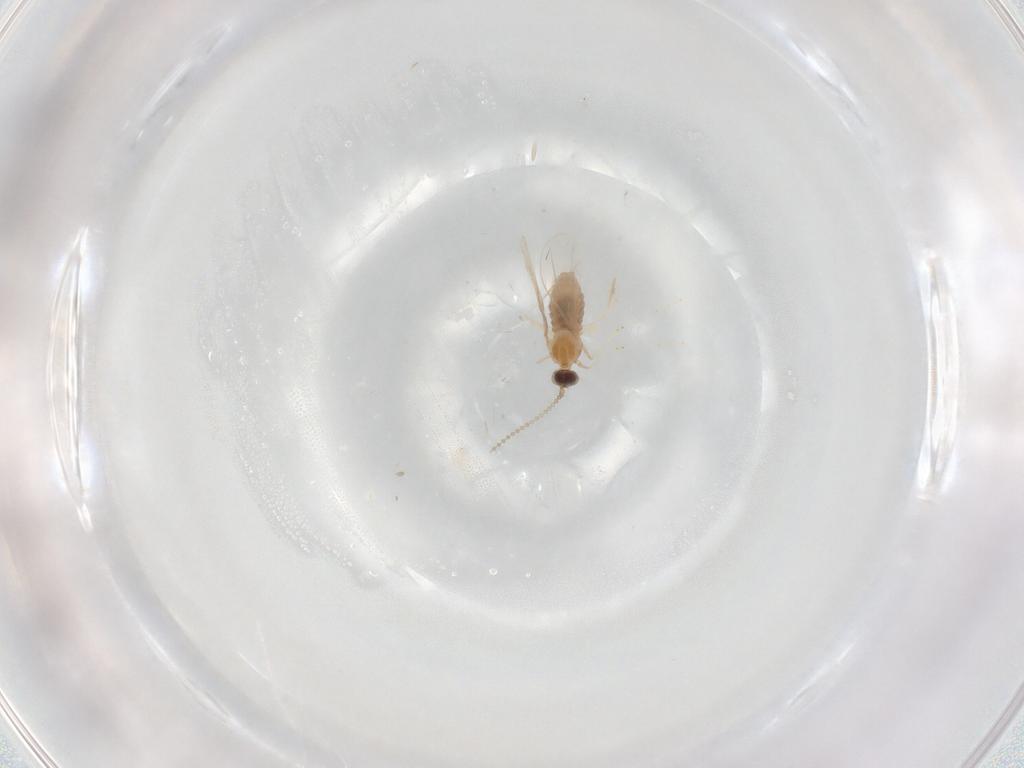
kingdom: Animalia
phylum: Arthropoda
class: Insecta
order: Diptera
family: Cecidomyiidae
